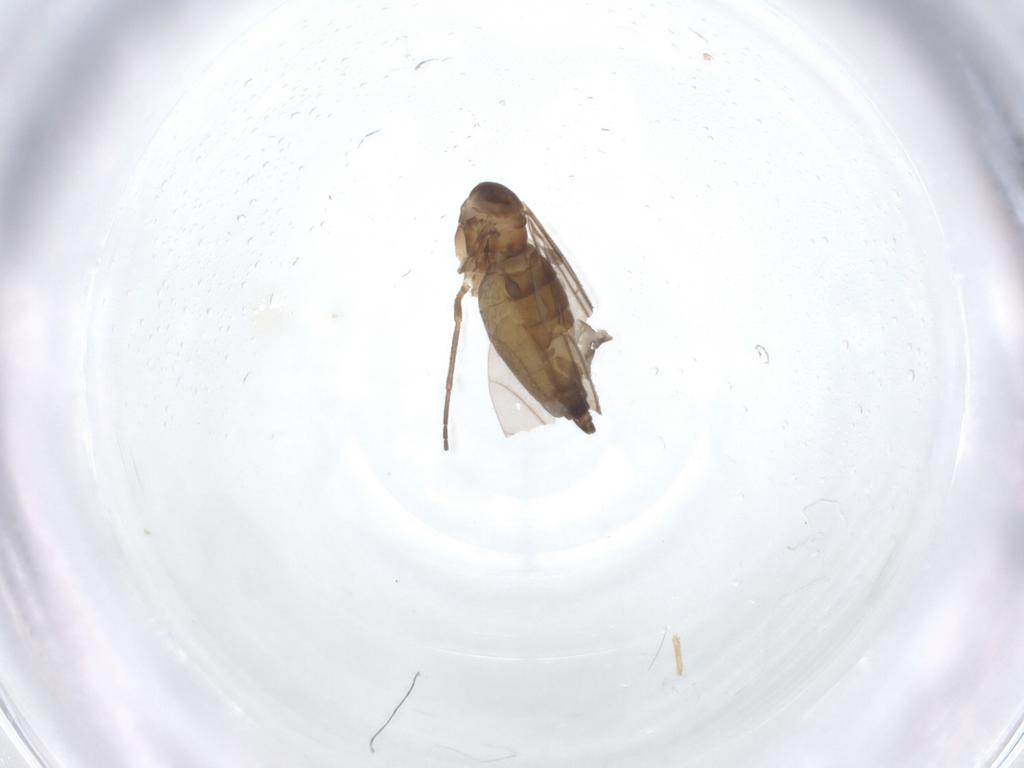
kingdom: Animalia
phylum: Arthropoda
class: Insecta
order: Diptera
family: Sciaridae
